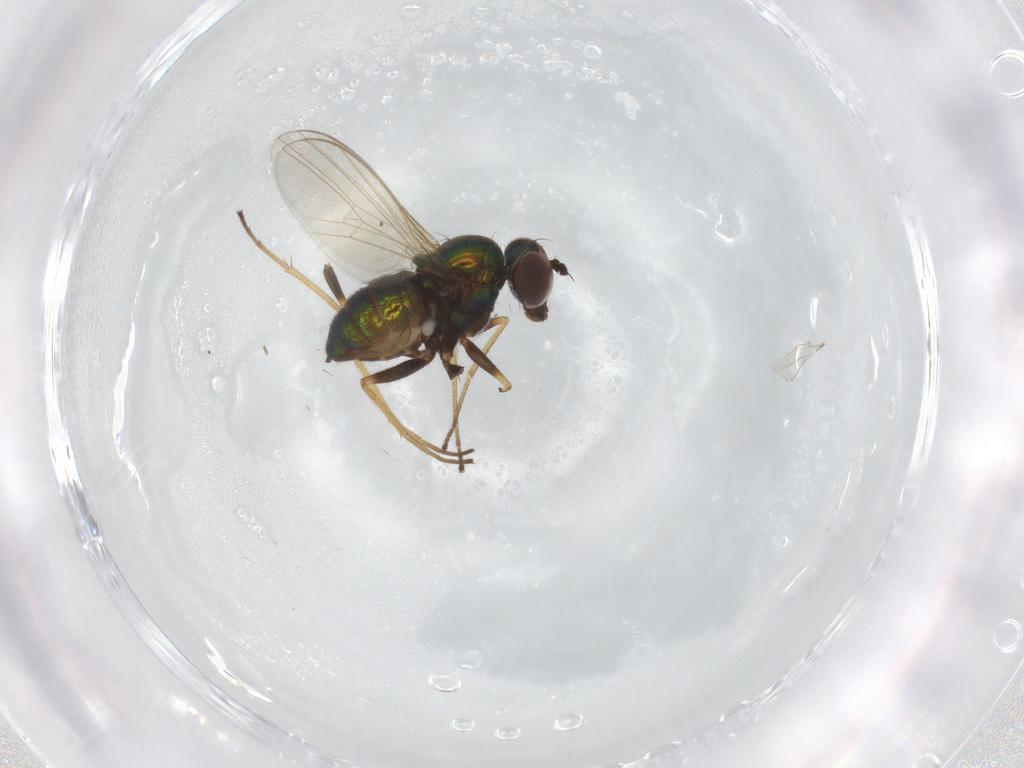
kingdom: Animalia
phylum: Arthropoda
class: Insecta
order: Diptera
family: Dolichopodidae
